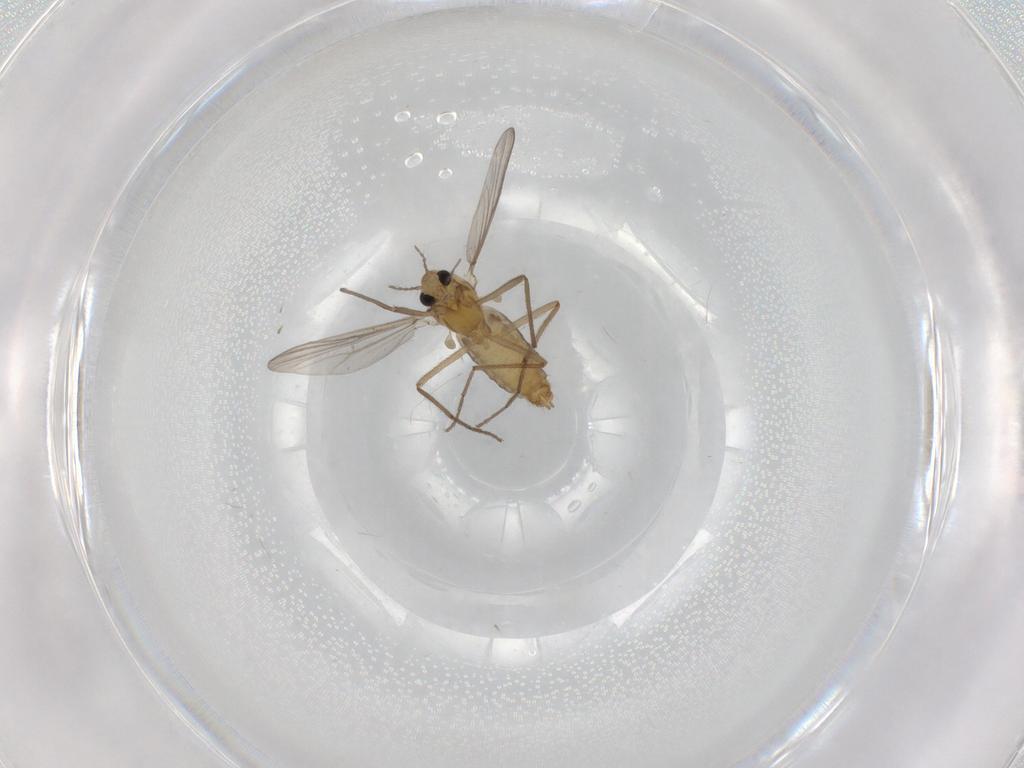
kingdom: Animalia
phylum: Arthropoda
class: Insecta
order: Diptera
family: Chironomidae
